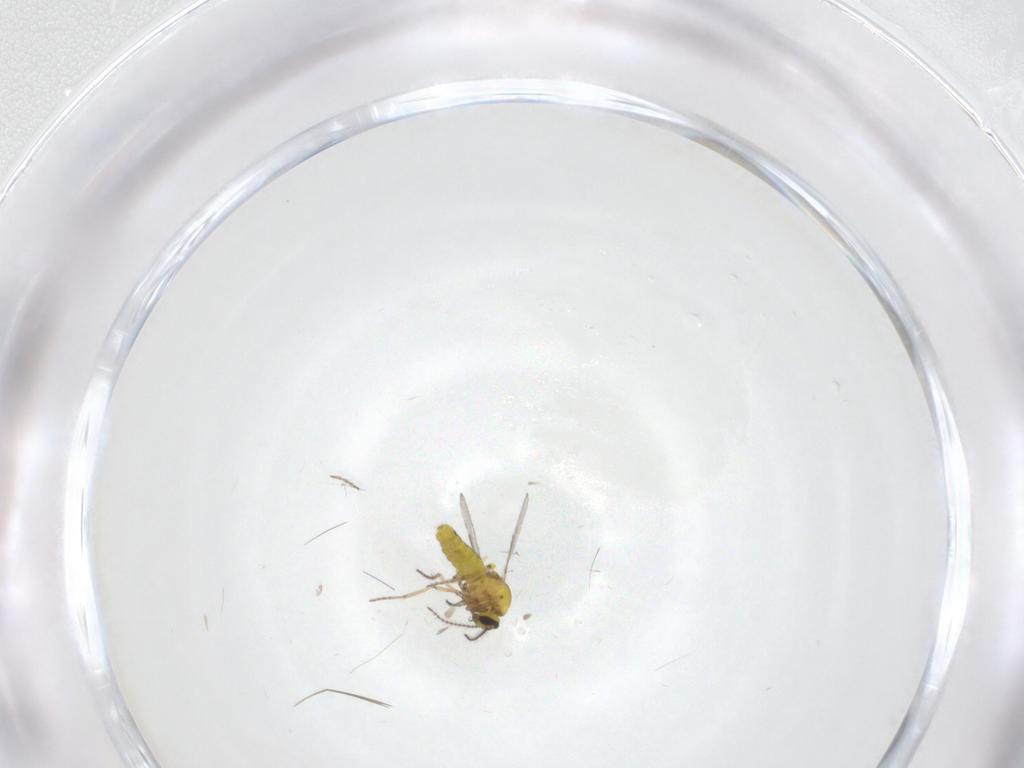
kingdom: Animalia
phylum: Arthropoda
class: Insecta
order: Diptera
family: Ceratopogonidae
